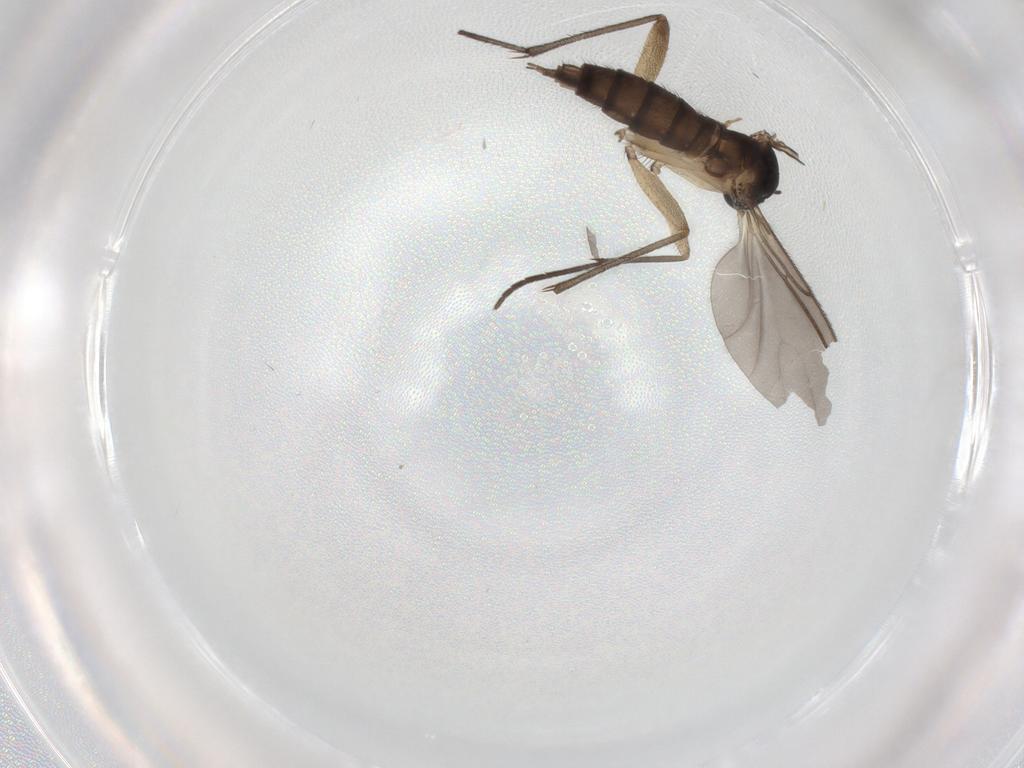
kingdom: Animalia
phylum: Arthropoda
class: Insecta
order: Diptera
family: Sciaridae
